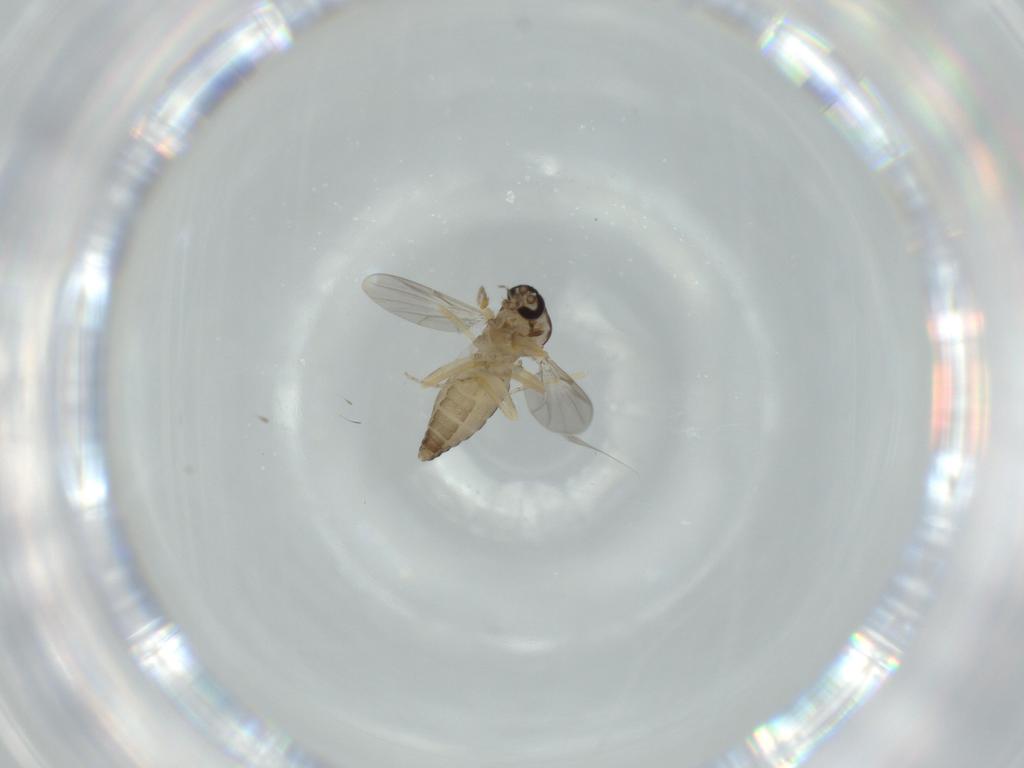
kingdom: Animalia
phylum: Arthropoda
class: Insecta
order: Diptera
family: Ceratopogonidae
